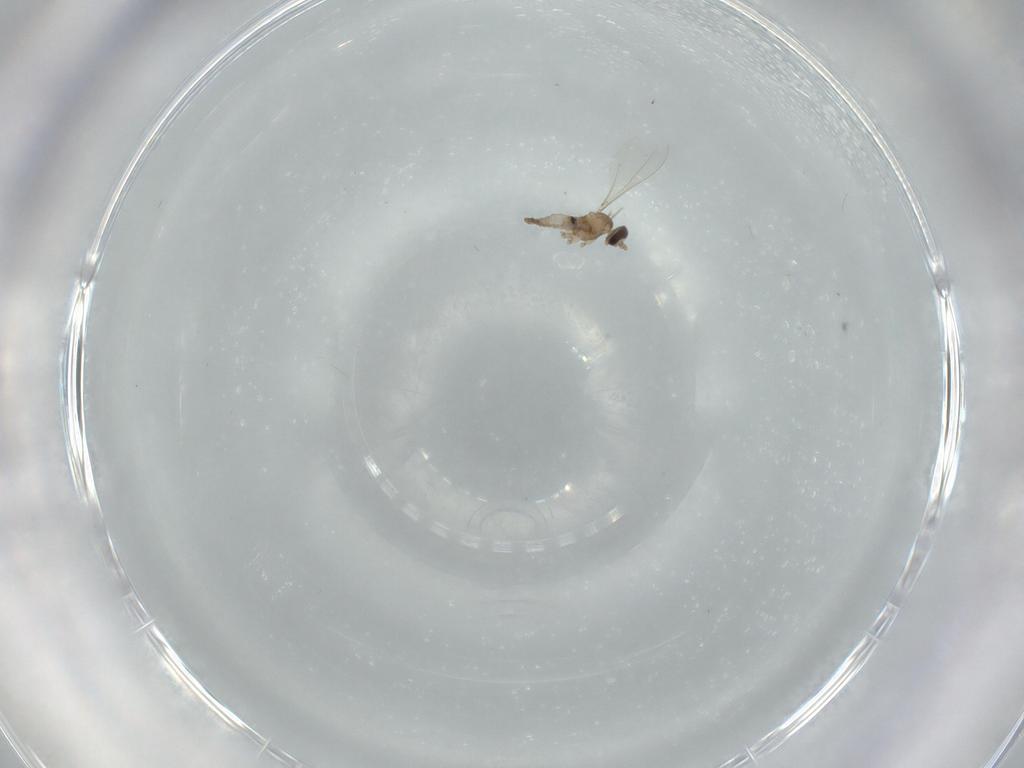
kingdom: Animalia
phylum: Arthropoda
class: Insecta
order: Diptera
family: Cecidomyiidae
